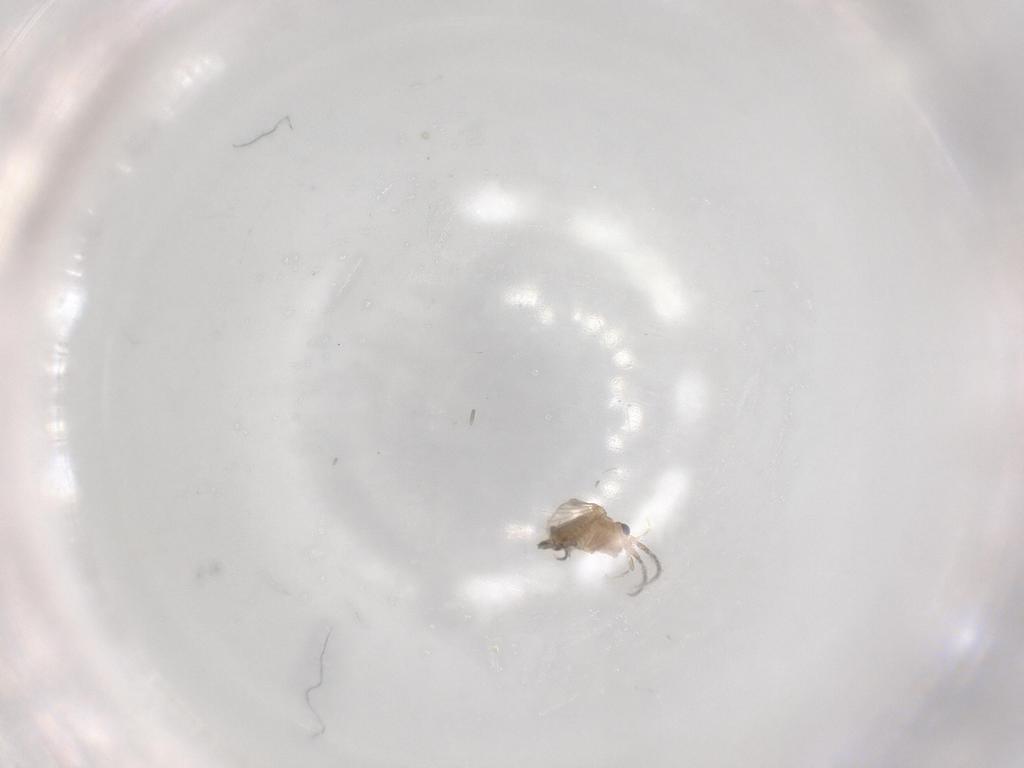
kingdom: Animalia
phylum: Arthropoda
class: Insecta
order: Diptera
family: Psychodidae
